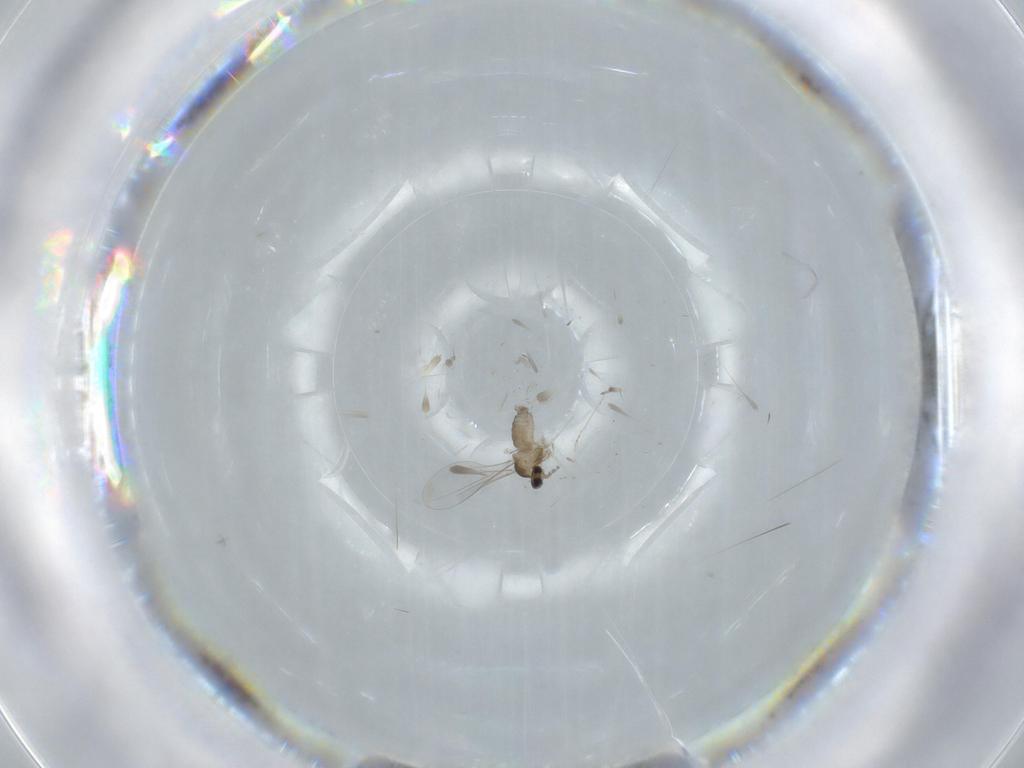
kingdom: Animalia
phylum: Arthropoda
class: Insecta
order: Diptera
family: Cecidomyiidae
